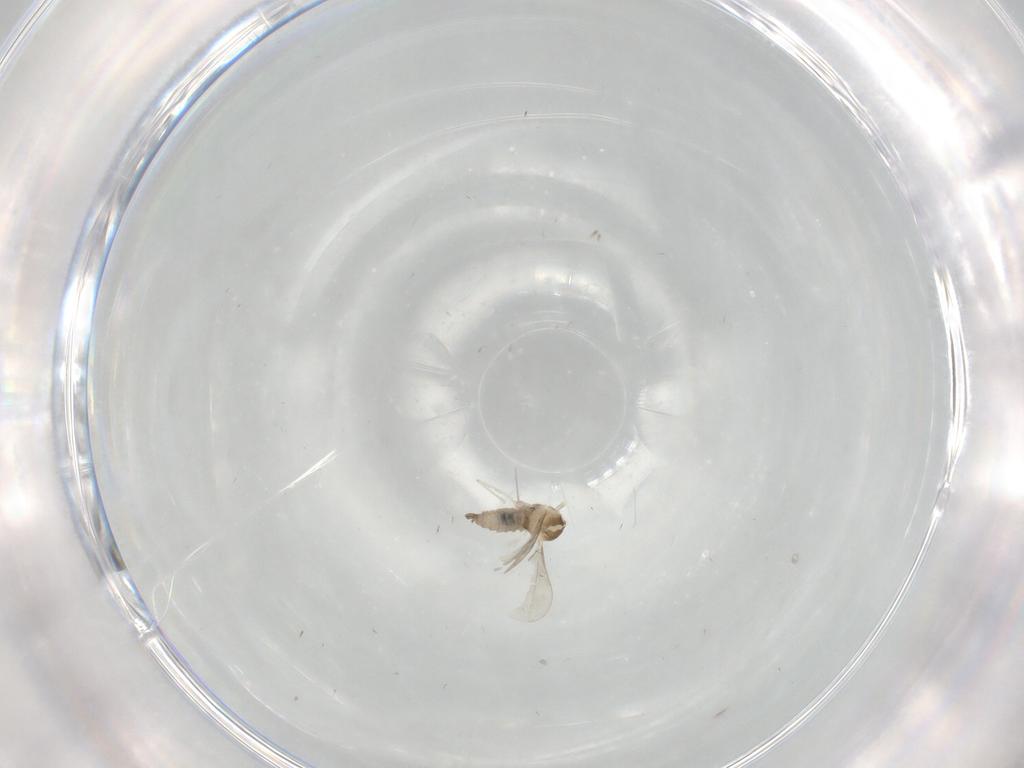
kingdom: Animalia
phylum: Arthropoda
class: Insecta
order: Diptera
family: Cecidomyiidae
